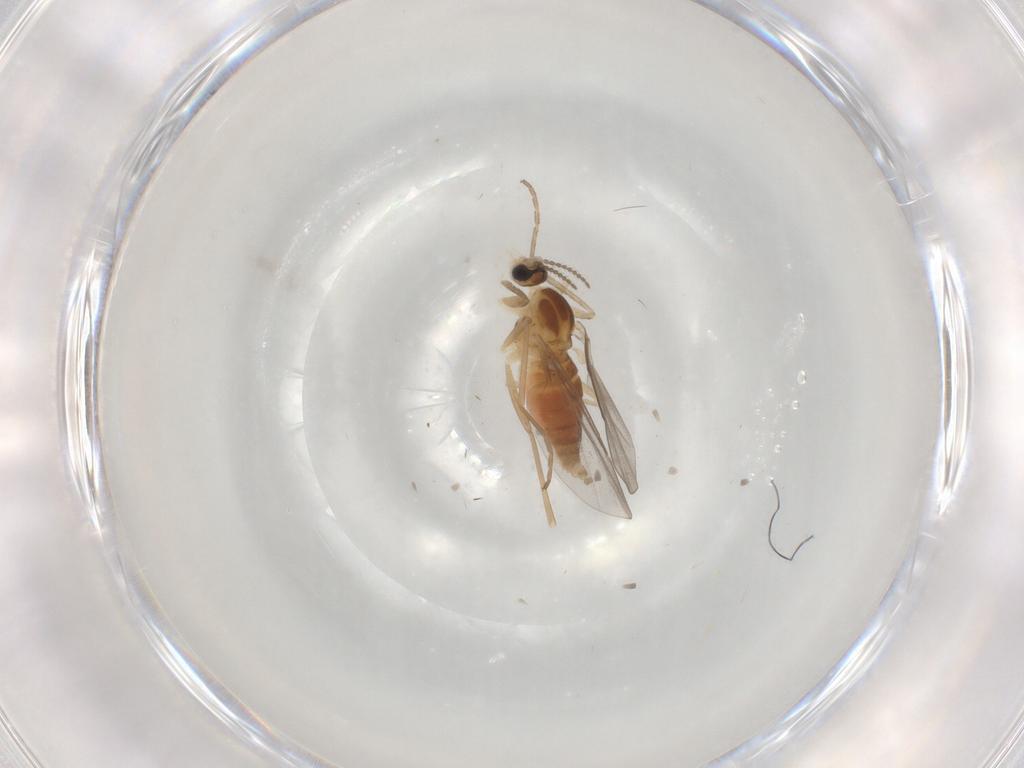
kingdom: Animalia
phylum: Arthropoda
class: Insecta
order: Diptera
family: Cecidomyiidae
